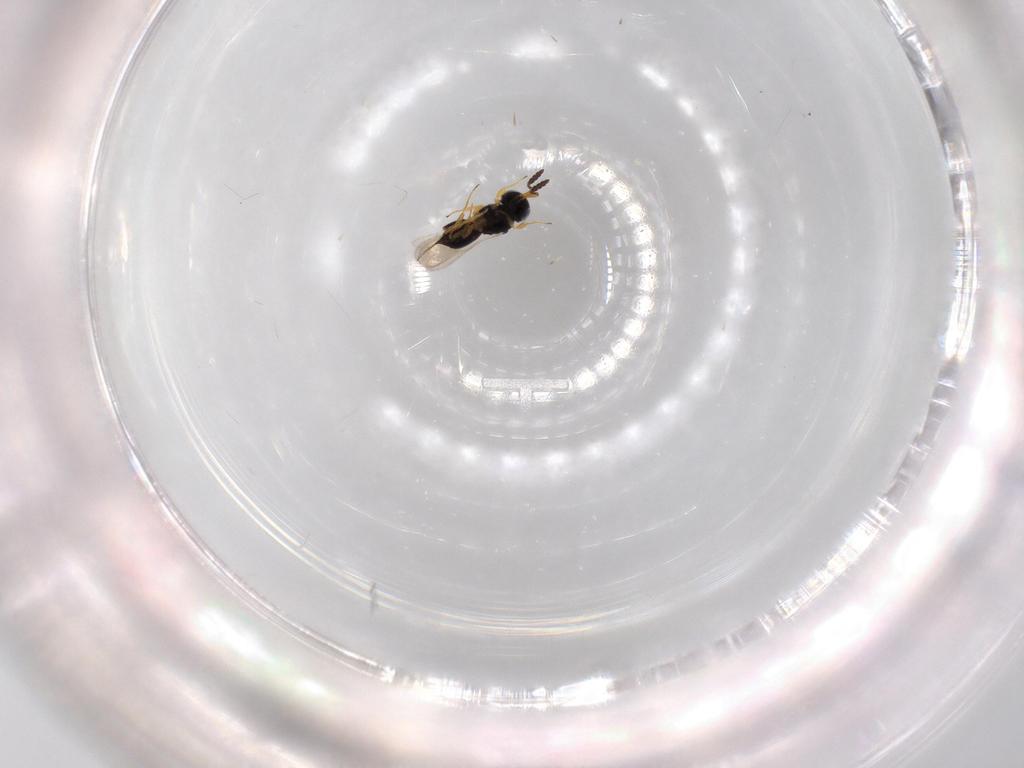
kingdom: Animalia
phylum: Arthropoda
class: Insecta
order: Hymenoptera
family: Scelionidae
